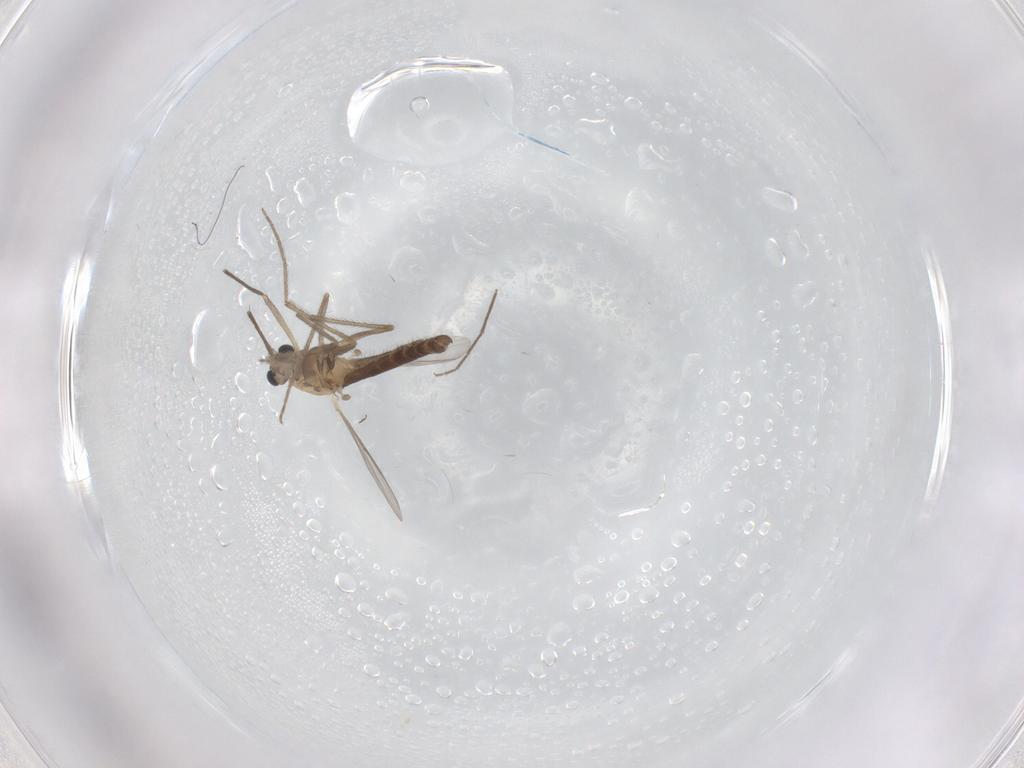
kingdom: Animalia
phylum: Arthropoda
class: Insecta
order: Diptera
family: Chironomidae
